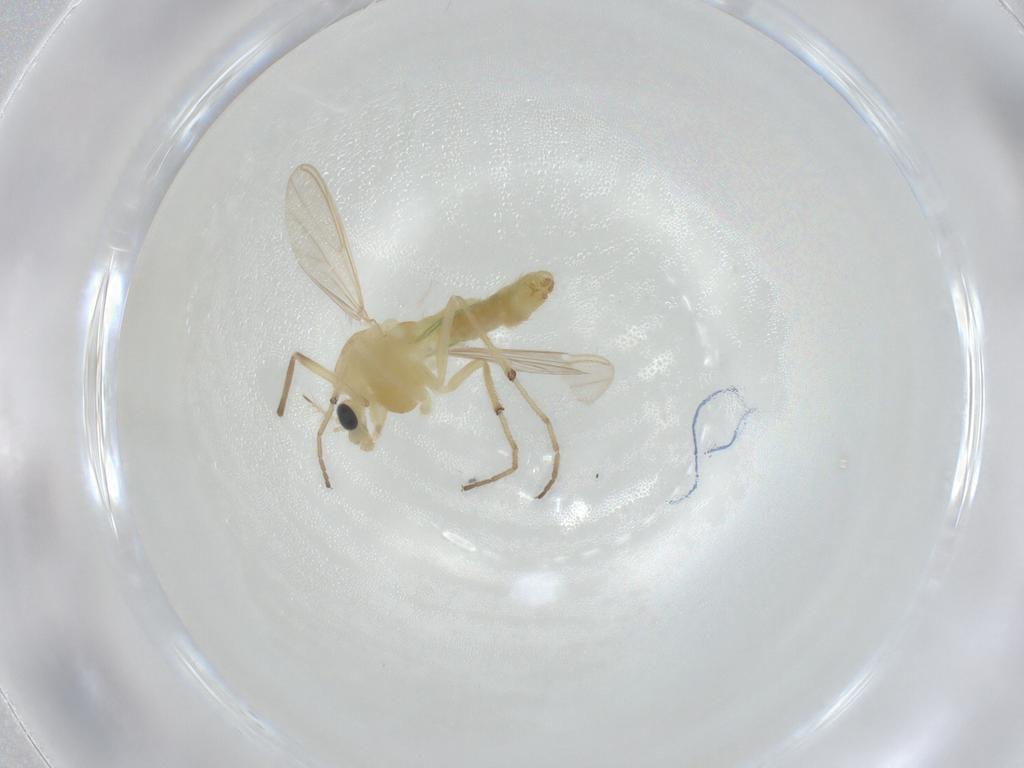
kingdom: Animalia
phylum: Arthropoda
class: Insecta
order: Diptera
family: Chironomidae
